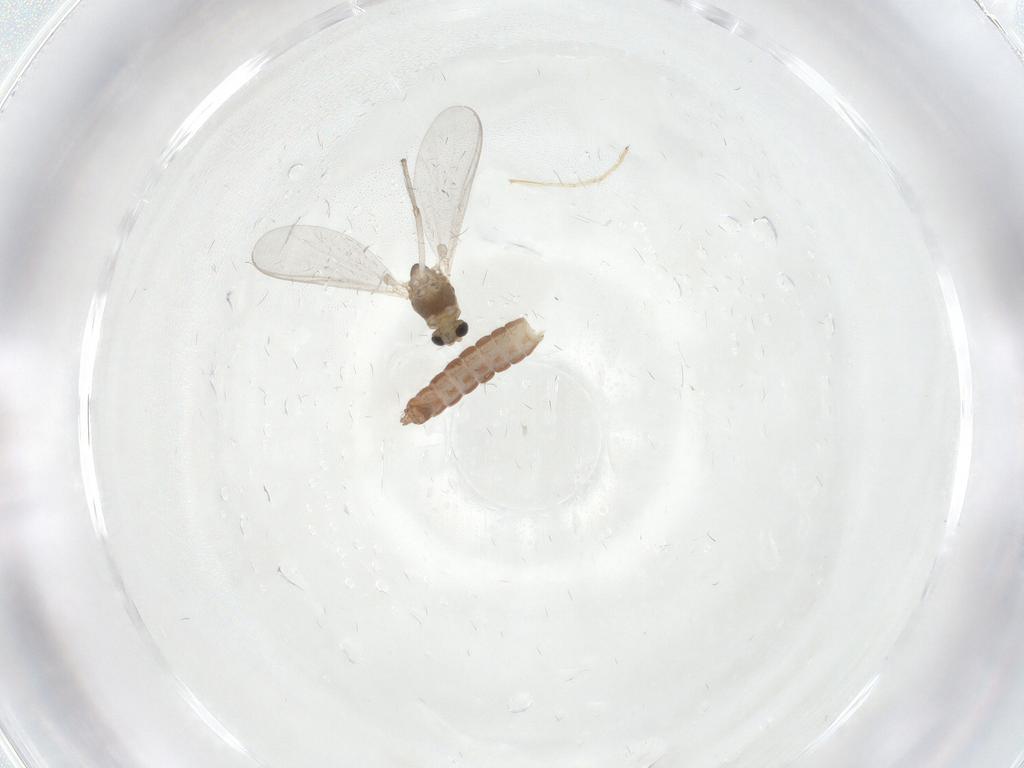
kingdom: Animalia
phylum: Arthropoda
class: Insecta
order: Diptera
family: Chironomidae
